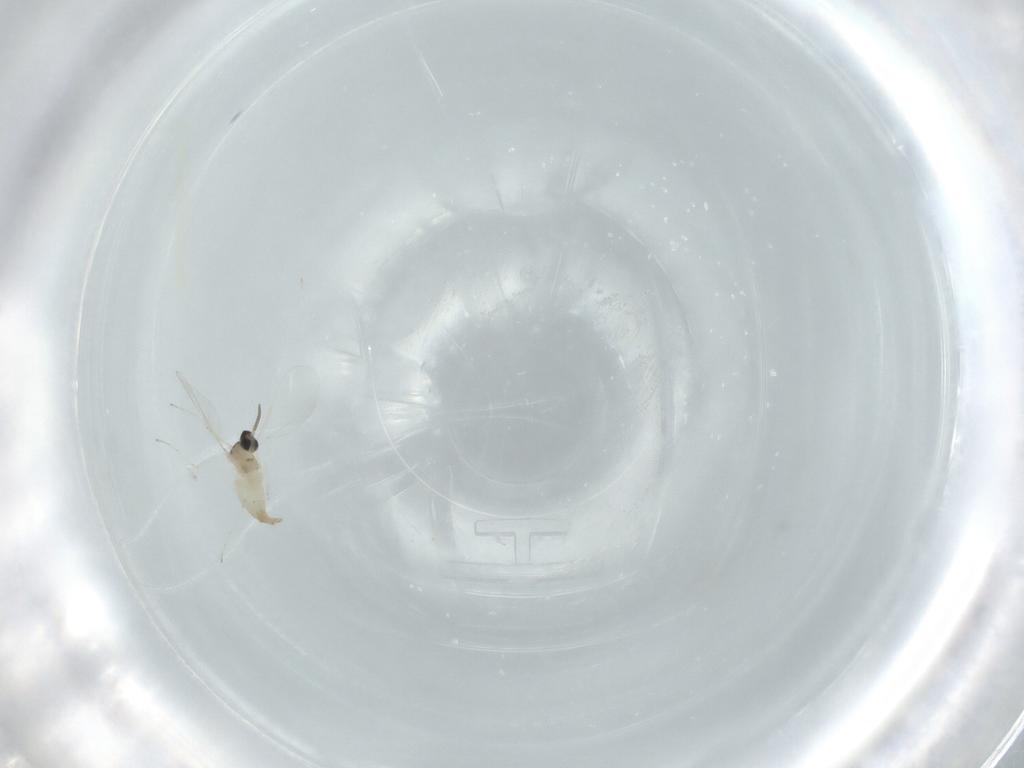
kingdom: Animalia
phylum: Arthropoda
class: Insecta
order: Diptera
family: Cecidomyiidae
